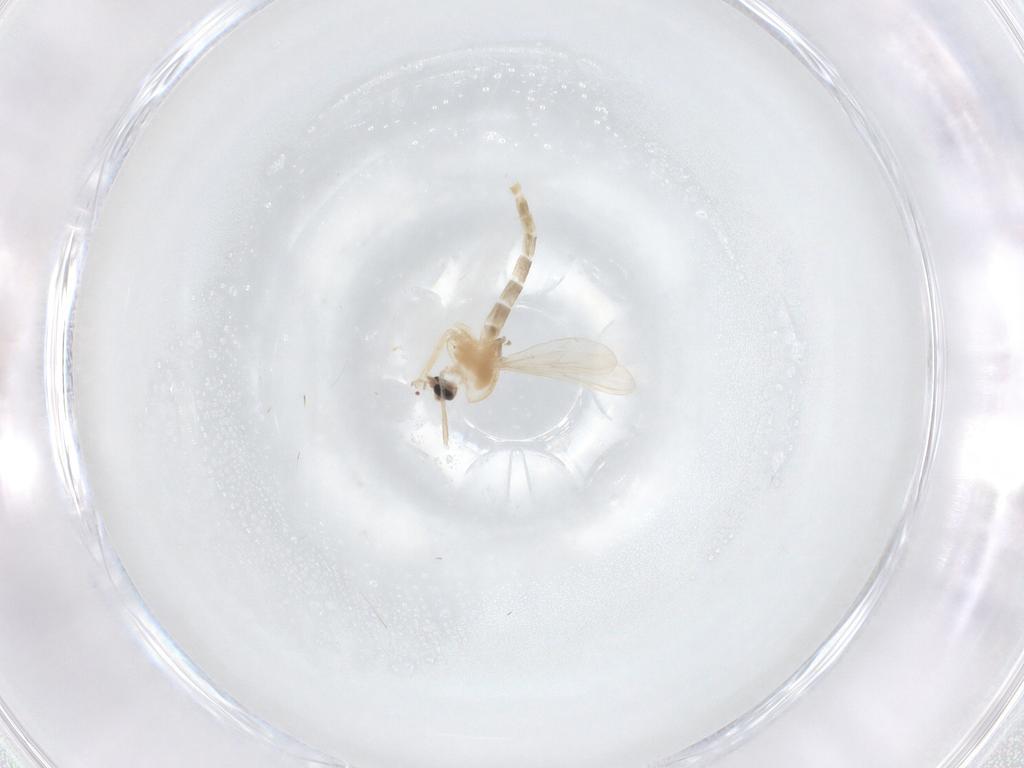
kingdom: Animalia
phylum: Arthropoda
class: Insecta
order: Diptera
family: Chironomidae
